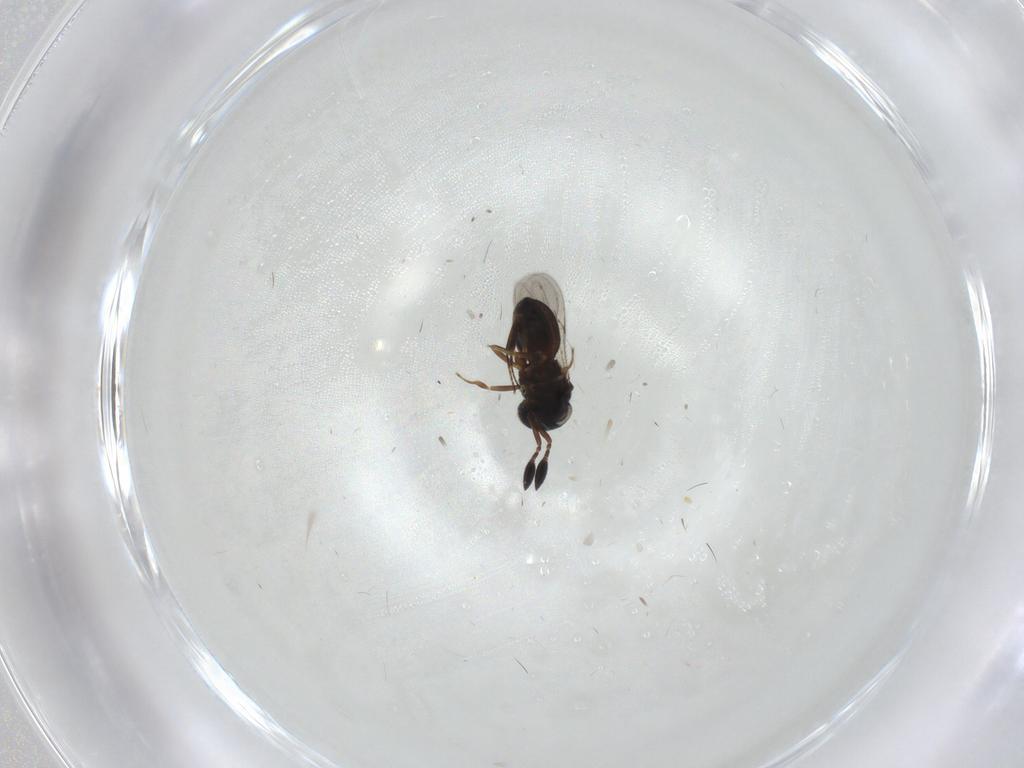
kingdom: Animalia
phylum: Arthropoda
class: Insecta
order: Hymenoptera
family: Scelionidae
